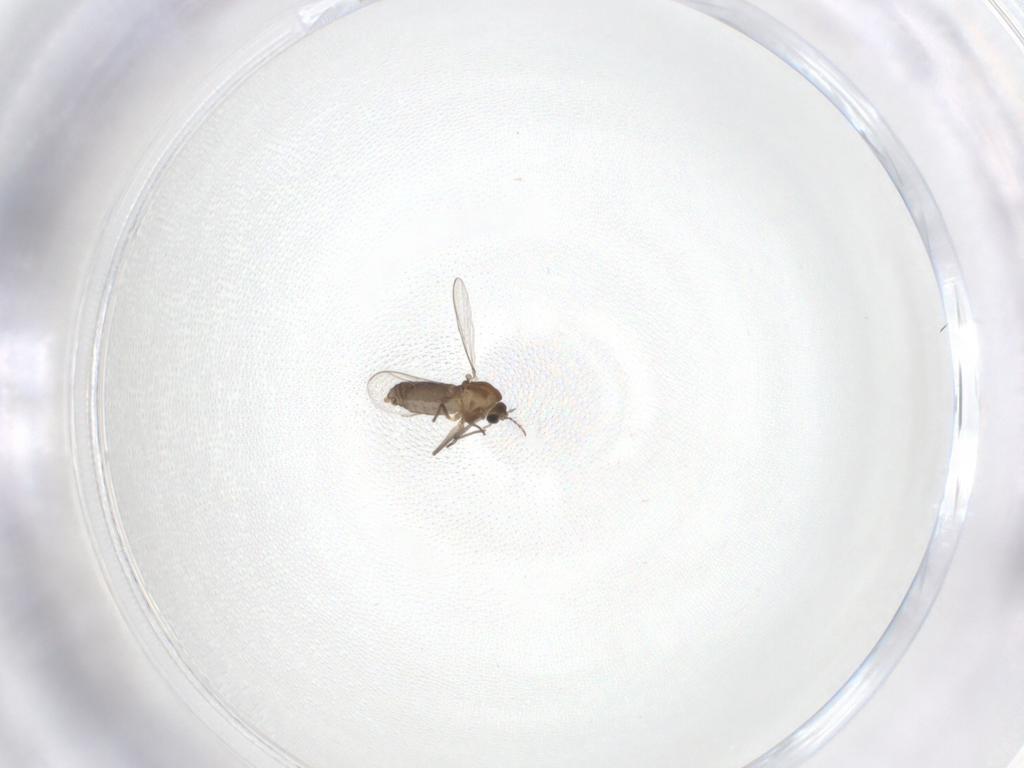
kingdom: Animalia
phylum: Arthropoda
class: Insecta
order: Diptera
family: Chironomidae
